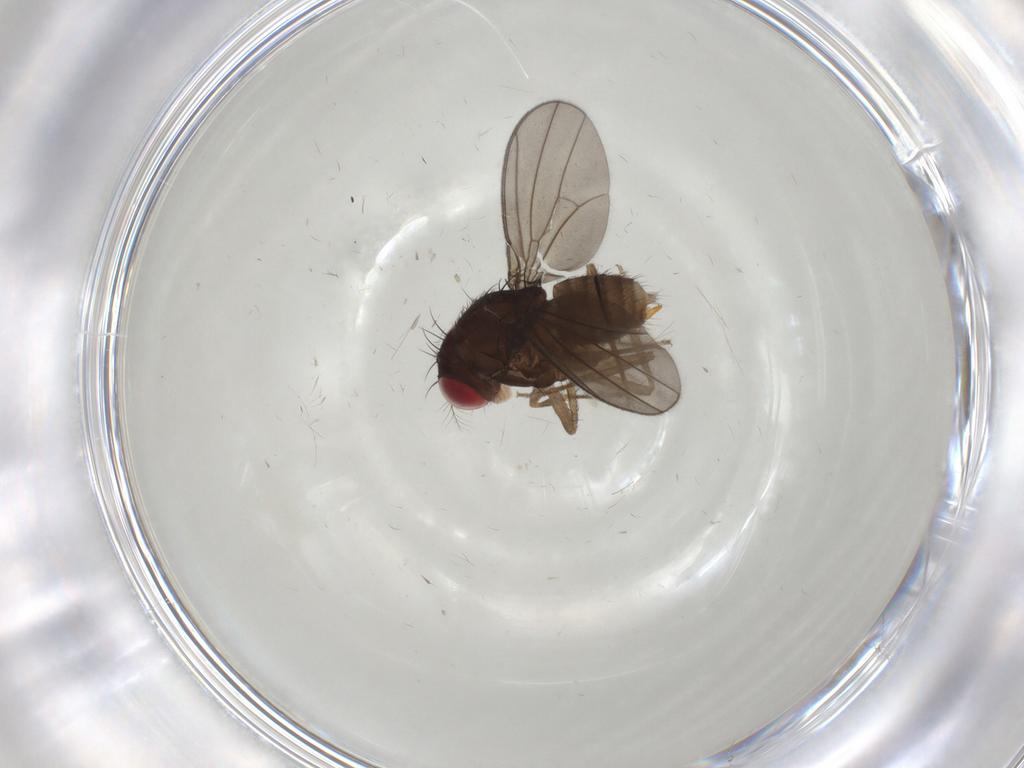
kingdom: Animalia
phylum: Arthropoda
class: Insecta
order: Diptera
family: Drosophilidae
